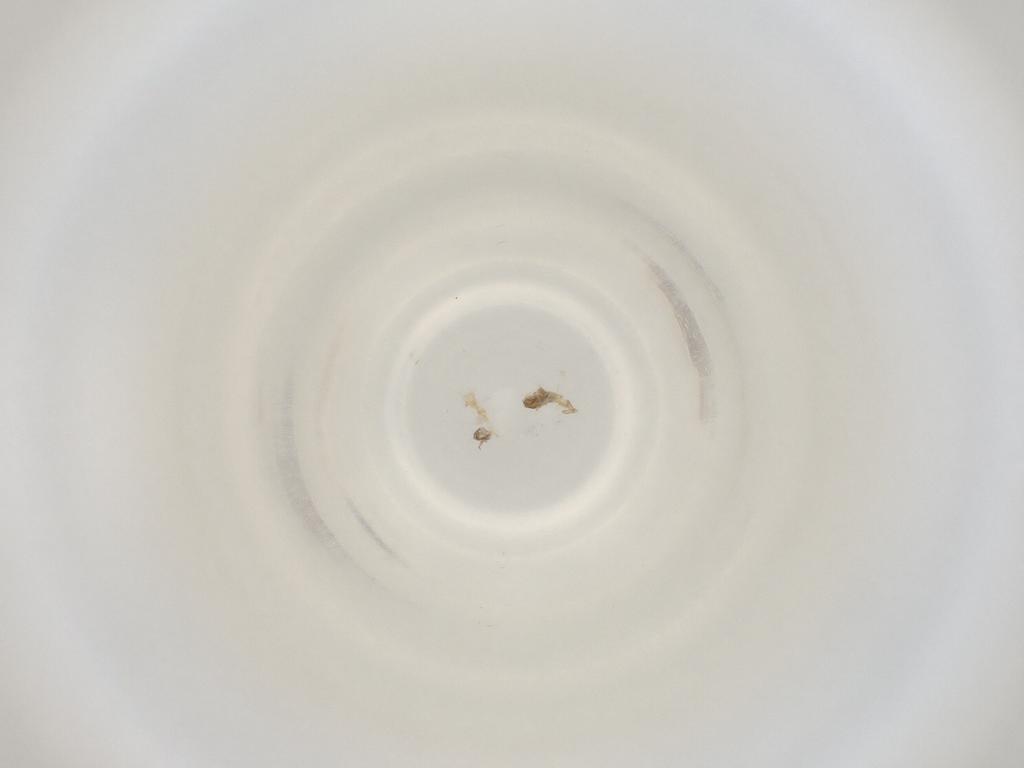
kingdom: Animalia
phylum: Arthropoda
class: Insecta
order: Diptera
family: Cecidomyiidae
